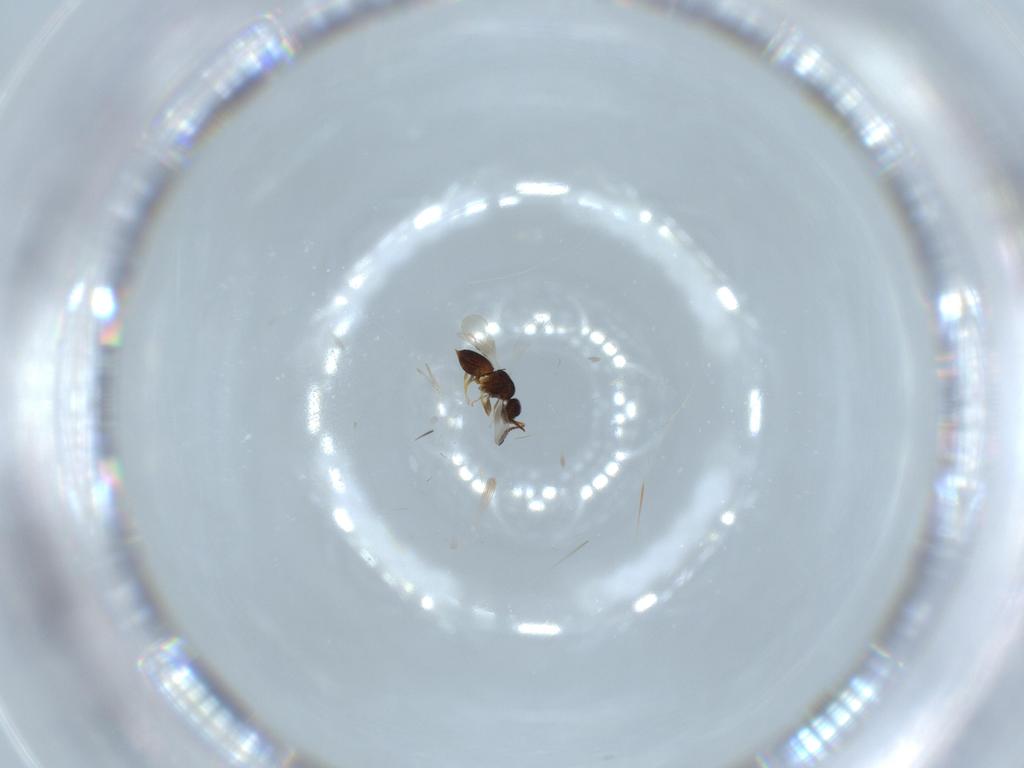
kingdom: Animalia
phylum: Arthropoda
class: Insecta
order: Hymenoptera
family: Ceraphronidae
